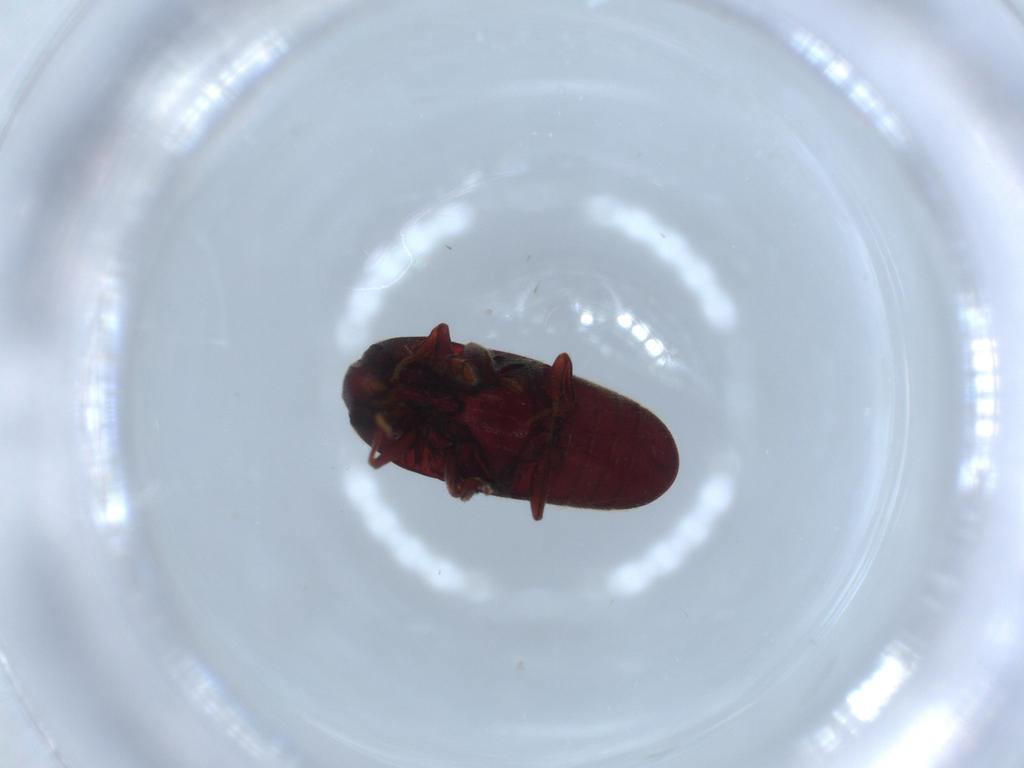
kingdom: Animalia
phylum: Arthropoda
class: Insecta
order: Coleoptera
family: Throscidae
